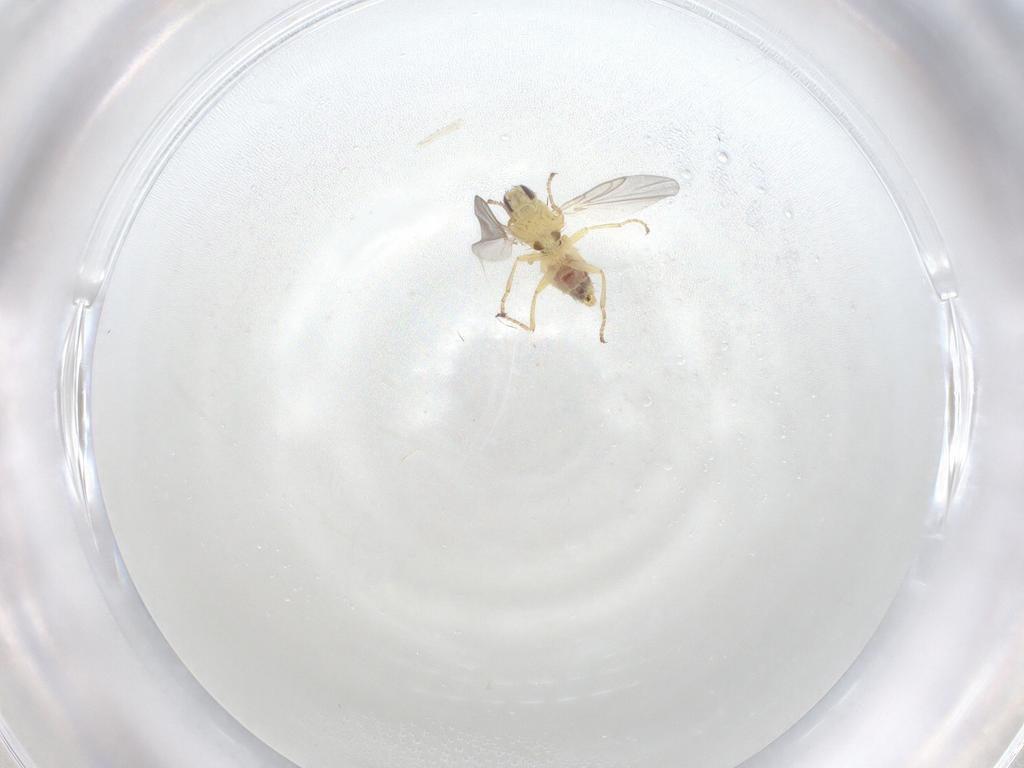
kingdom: Animalia
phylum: Arthropoda
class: Insecta
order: Diptera
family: Agromyzidae
